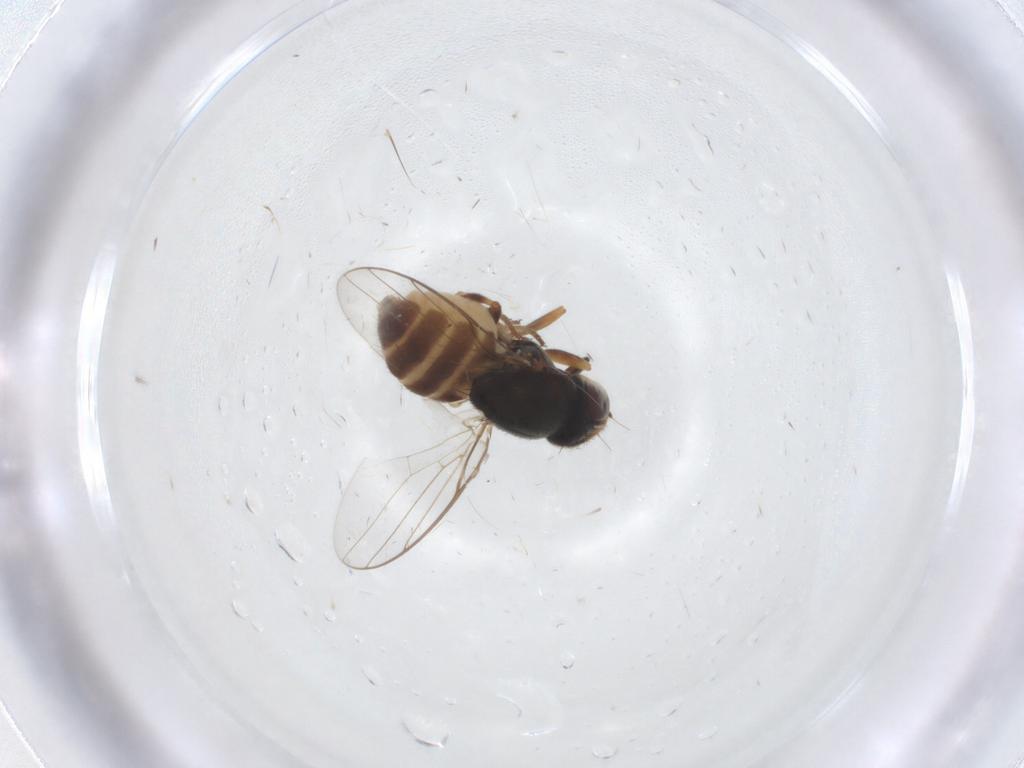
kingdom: Animalia
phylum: Arthropoda
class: Insecta
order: Diptera
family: Chloropidae
